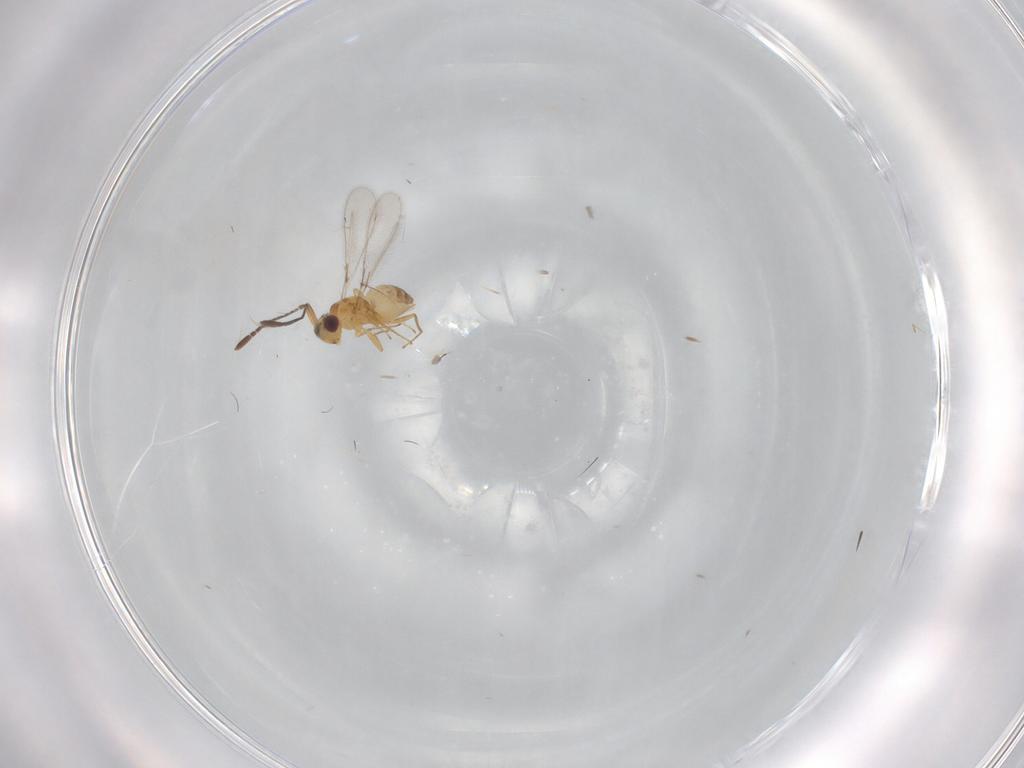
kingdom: Animalia
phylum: Arthropoda
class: Insecta
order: Hymenoptera
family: Mymaridae
